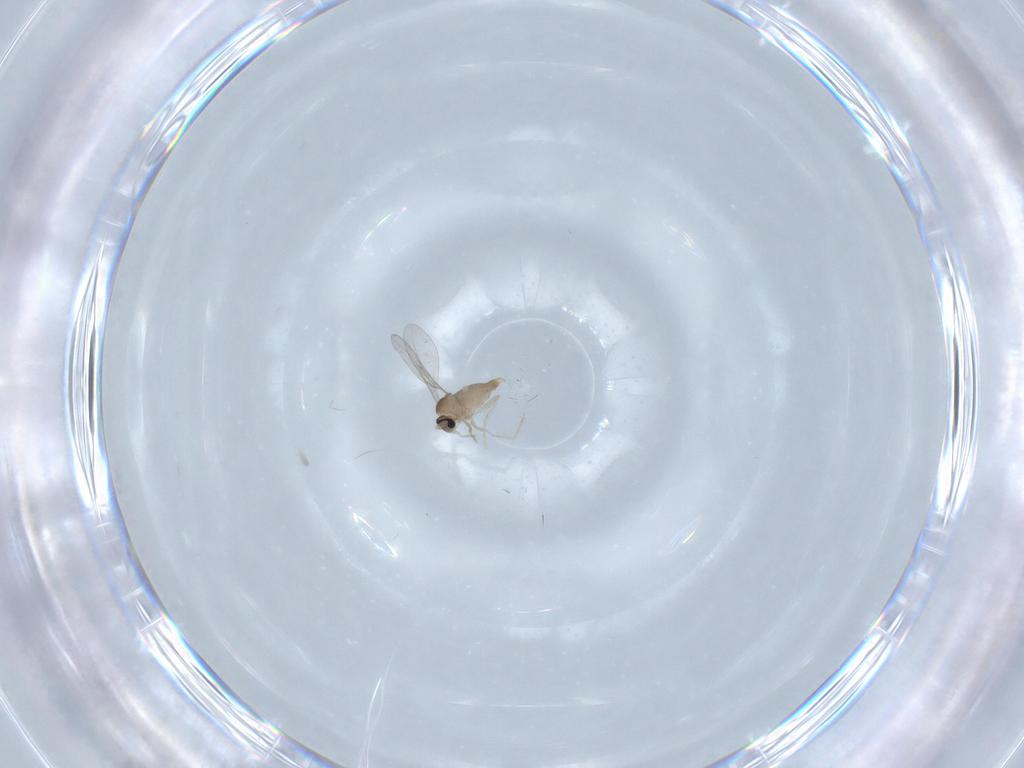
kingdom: Animalia
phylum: Arthropoda
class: Insecta
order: Diptera
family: Cecidomyiidae
